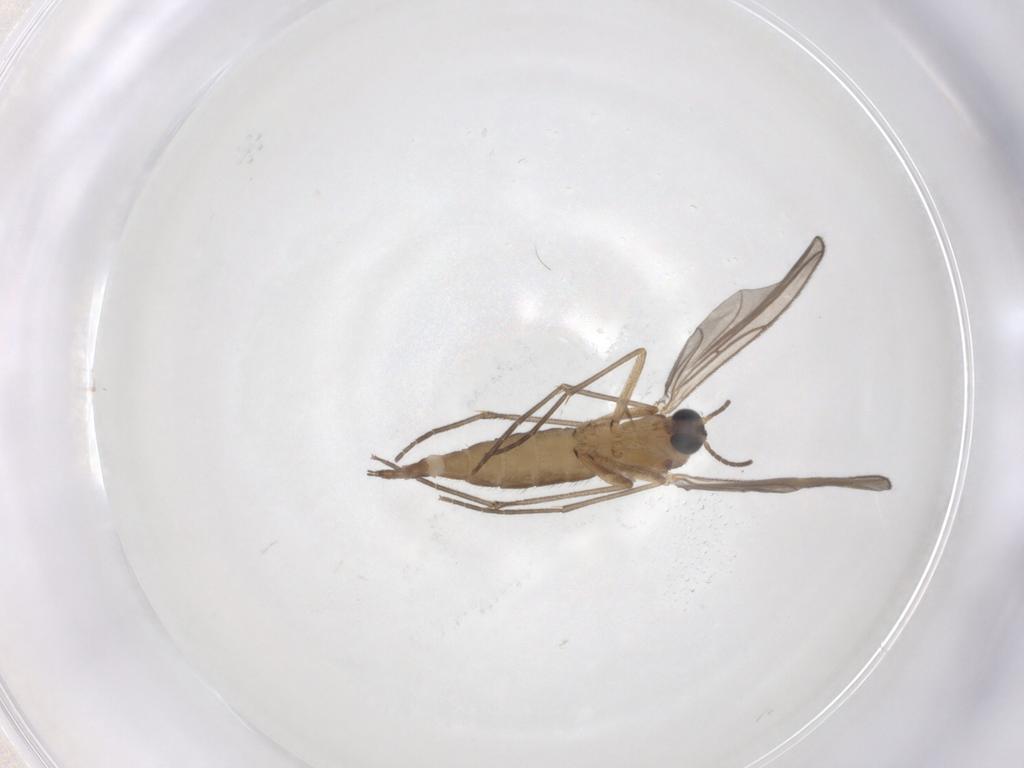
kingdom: Animalia
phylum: Arthropoda
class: Insecta
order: Diptera
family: Sciaridae
